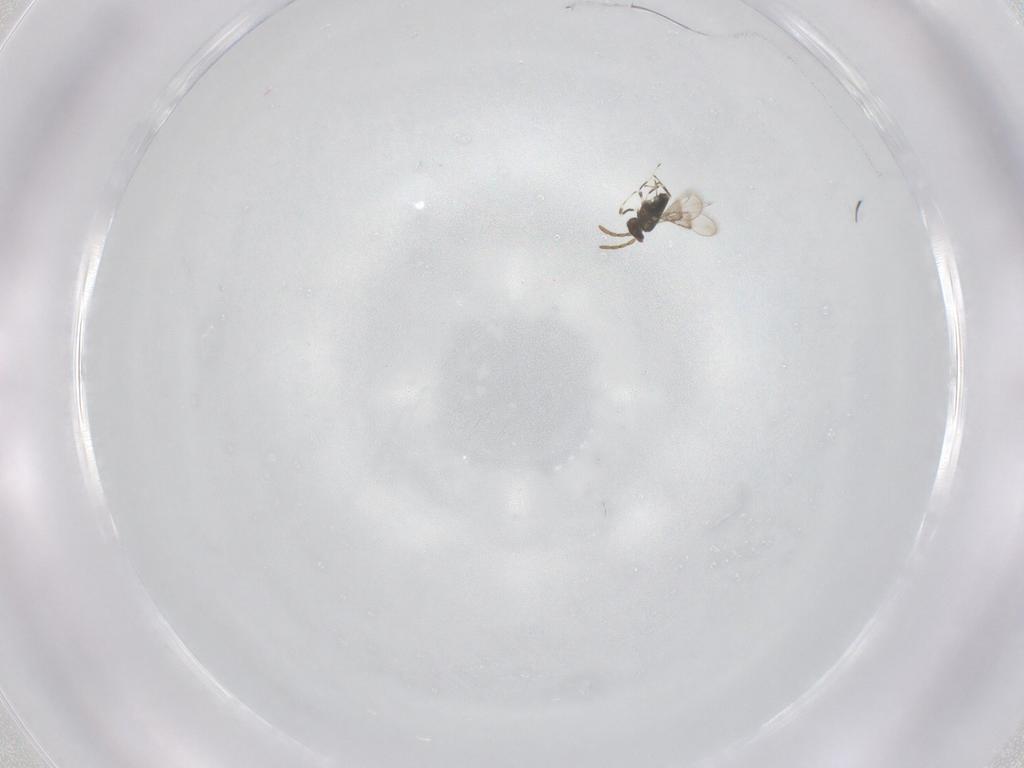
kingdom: Animalia
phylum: Arthropoda
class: Insecta
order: Hymenoptera
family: Azotidae
